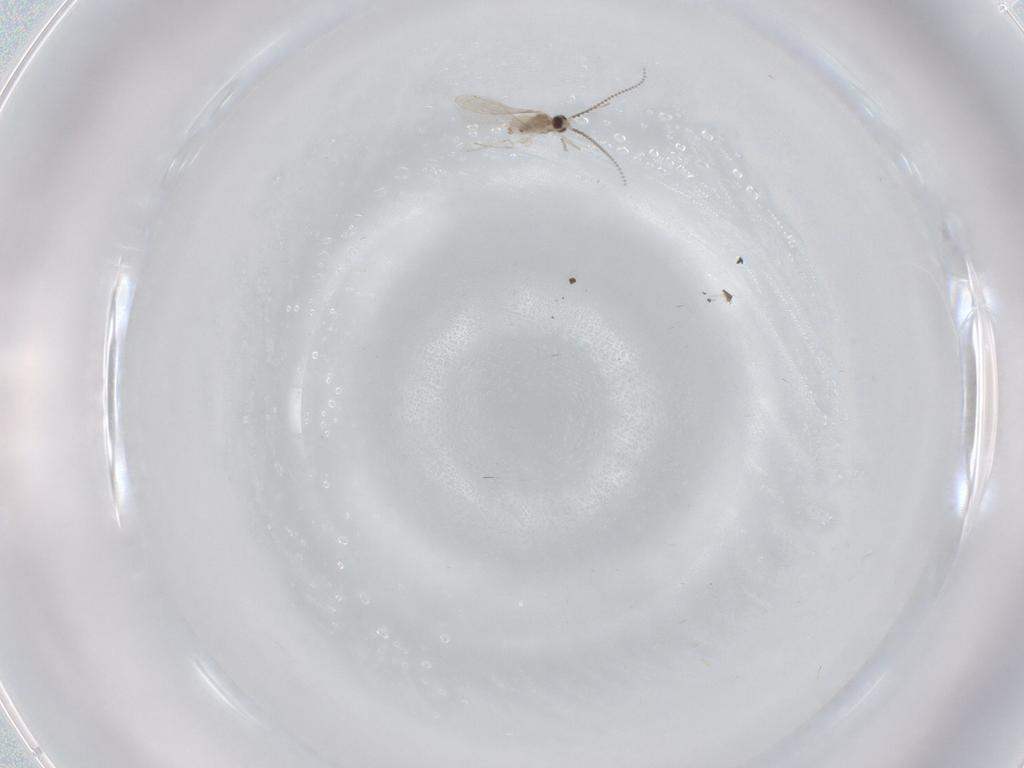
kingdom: Animalia
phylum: Arthropoda
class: Insecta
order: Diptera
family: Cecidomyiidae
